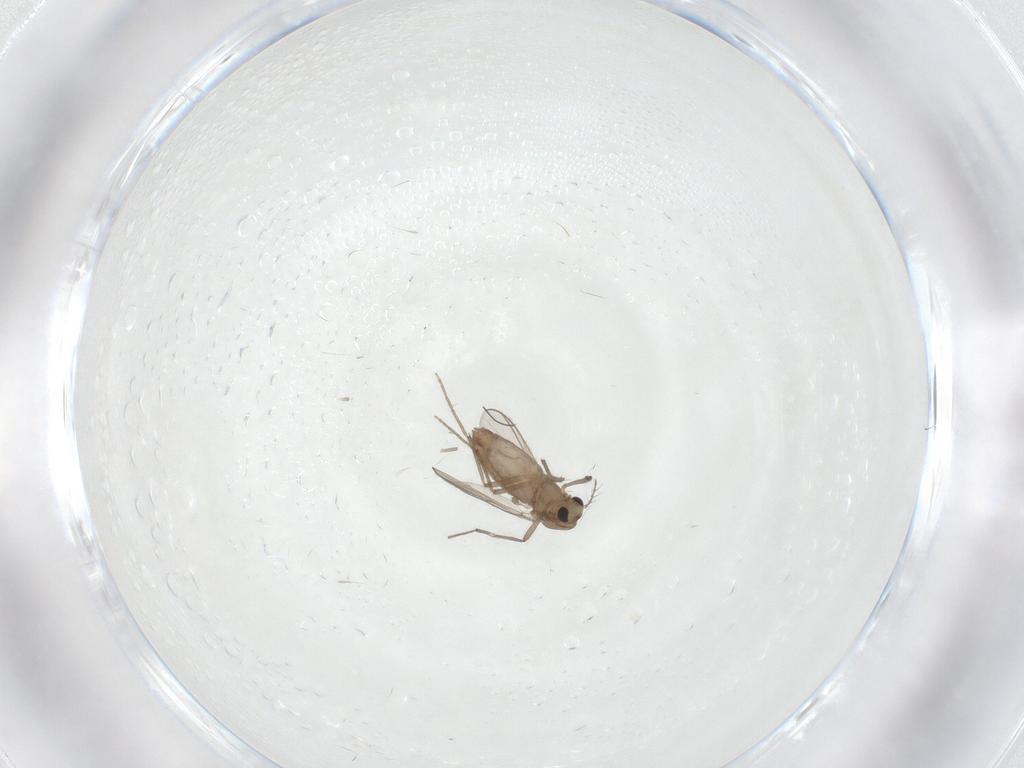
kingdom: Animalia
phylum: Arthropoda
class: Insecta
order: Diptera
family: Chironomidae
